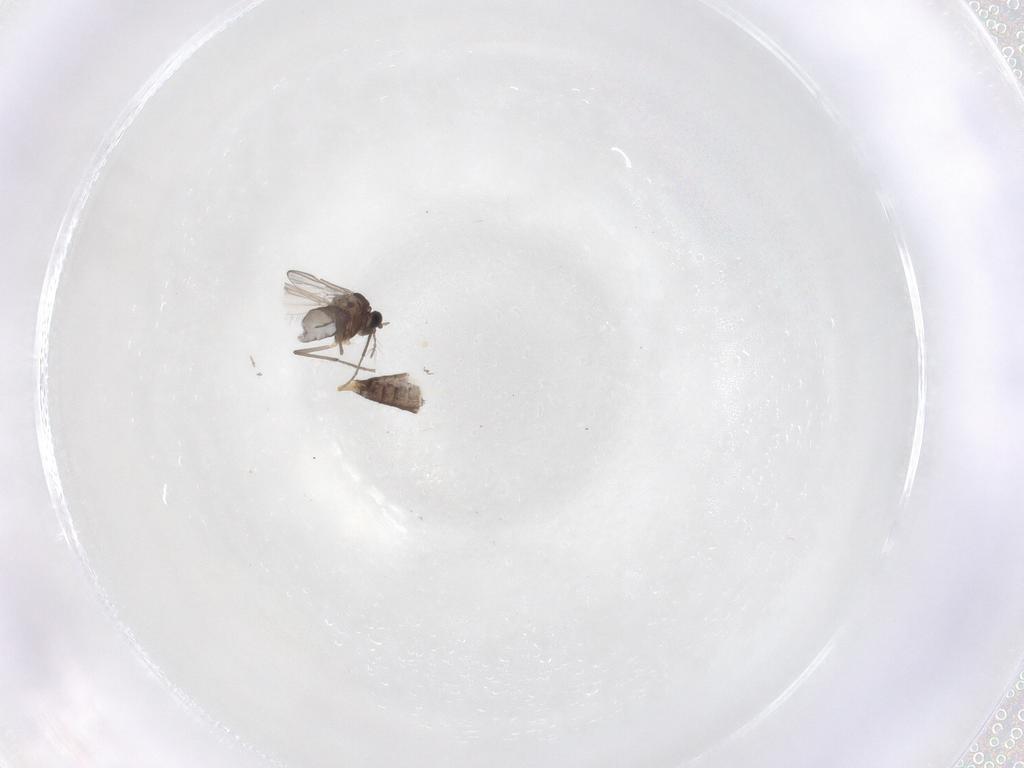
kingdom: Animalia
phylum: Arthropoda
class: Insecta
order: Diptera
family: Chironomidae
